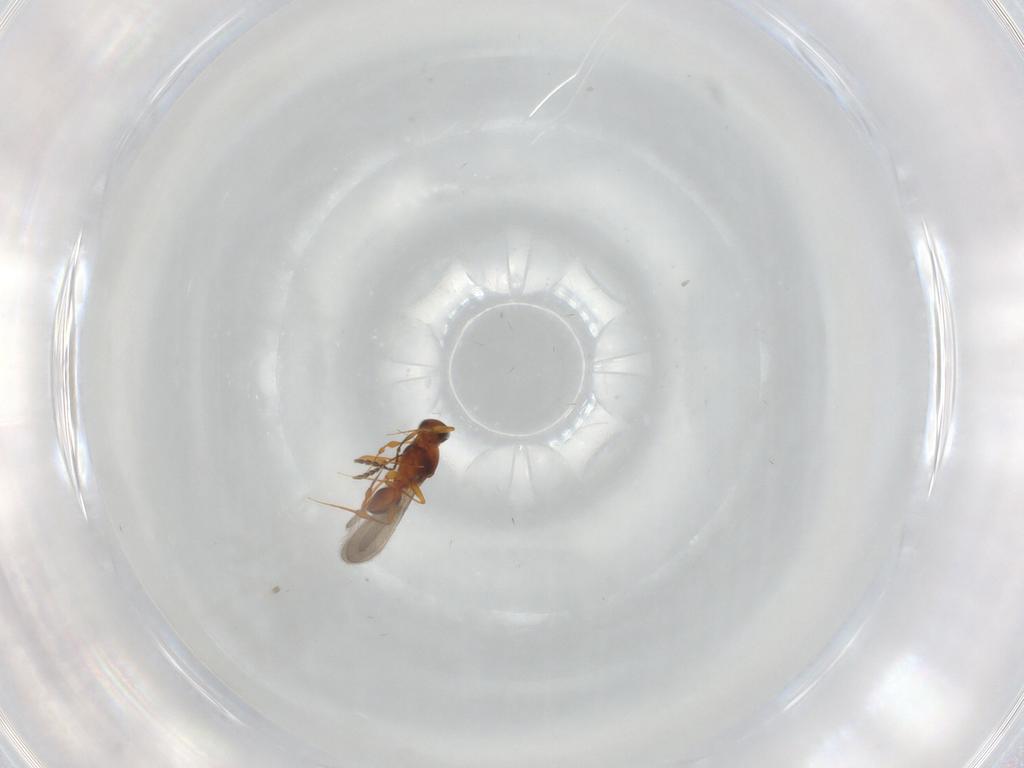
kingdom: Animalia
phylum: Arthropoda
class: Insecta
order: Hymenoptera
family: Platygastridae
